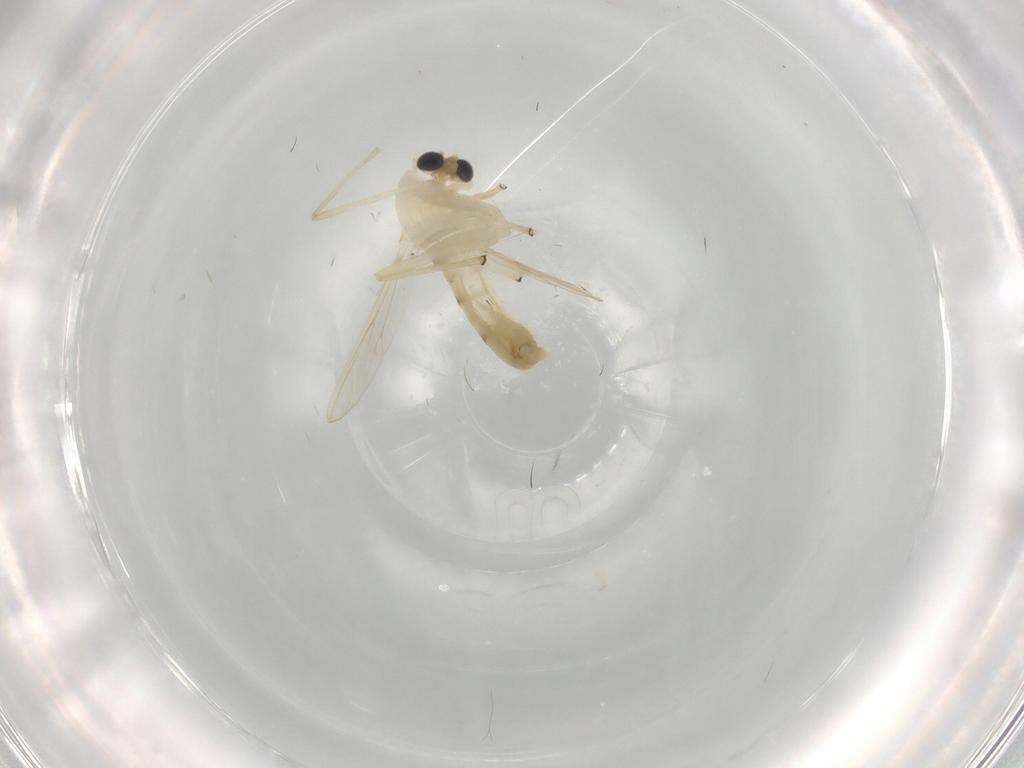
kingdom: Animalia
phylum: Arthropoda
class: Insecta
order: Diptera
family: Chironomidae
